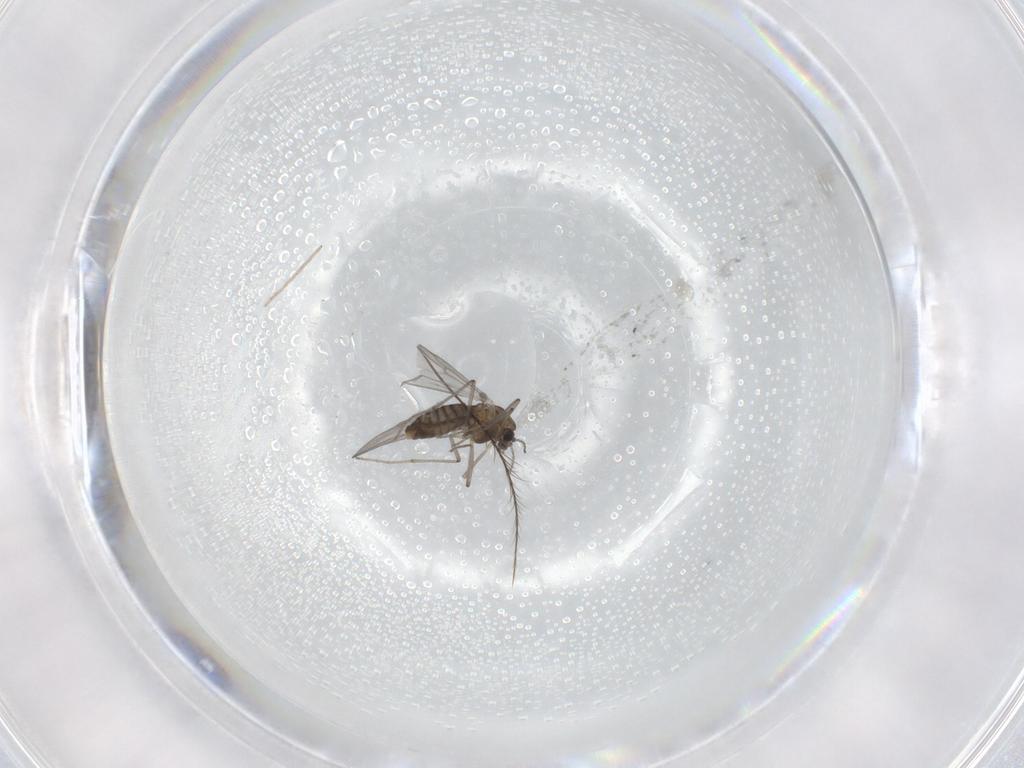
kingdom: Animalia
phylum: Arthropoda
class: Insecta
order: Diptera
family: Chironomidae
